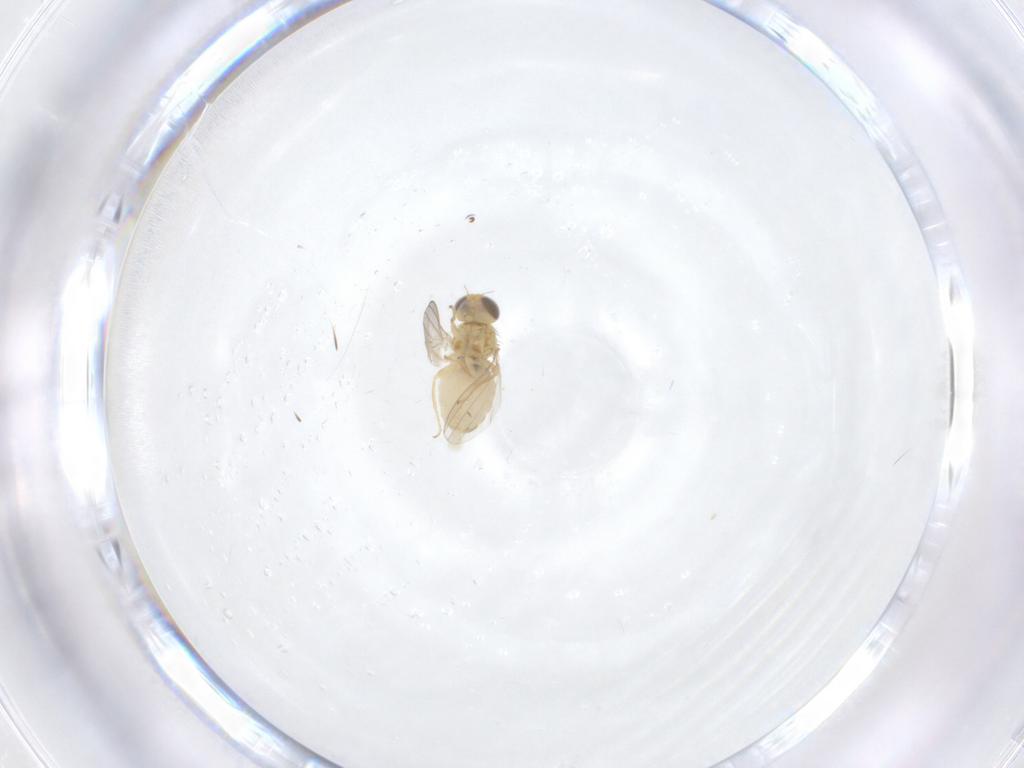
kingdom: Animalia
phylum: Arthropoda
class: Insecta
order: Diptera
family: Chyromyidae
